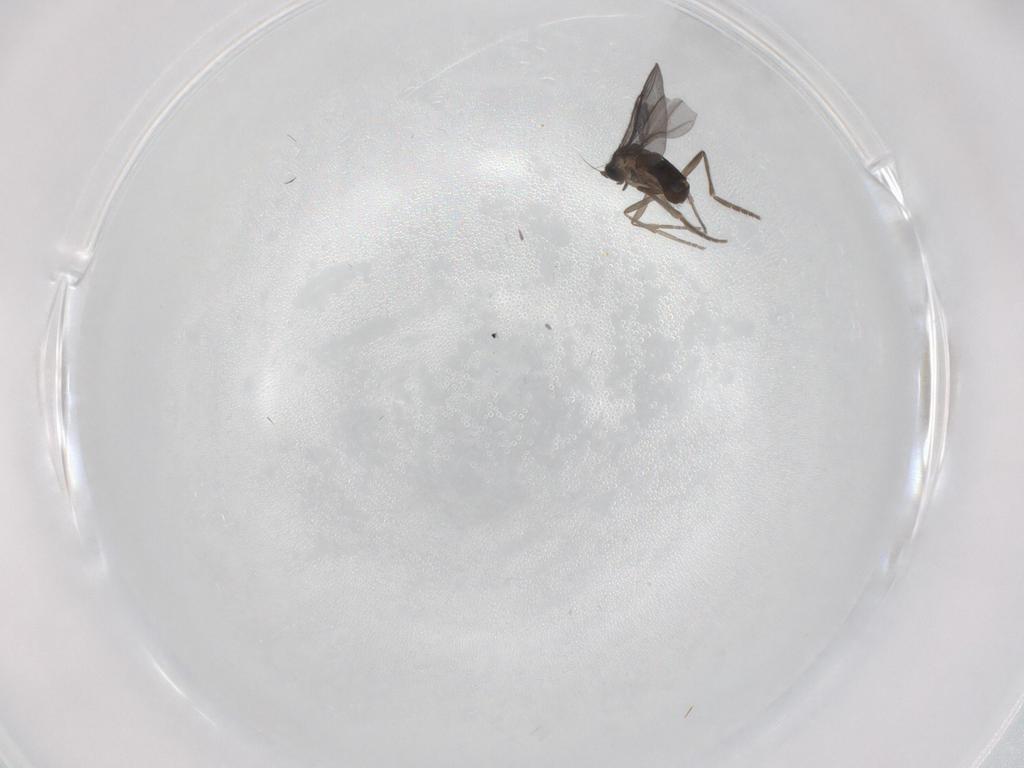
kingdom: Animalia
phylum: Arthropoda
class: Insecta
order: Diptera
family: Phoridae
